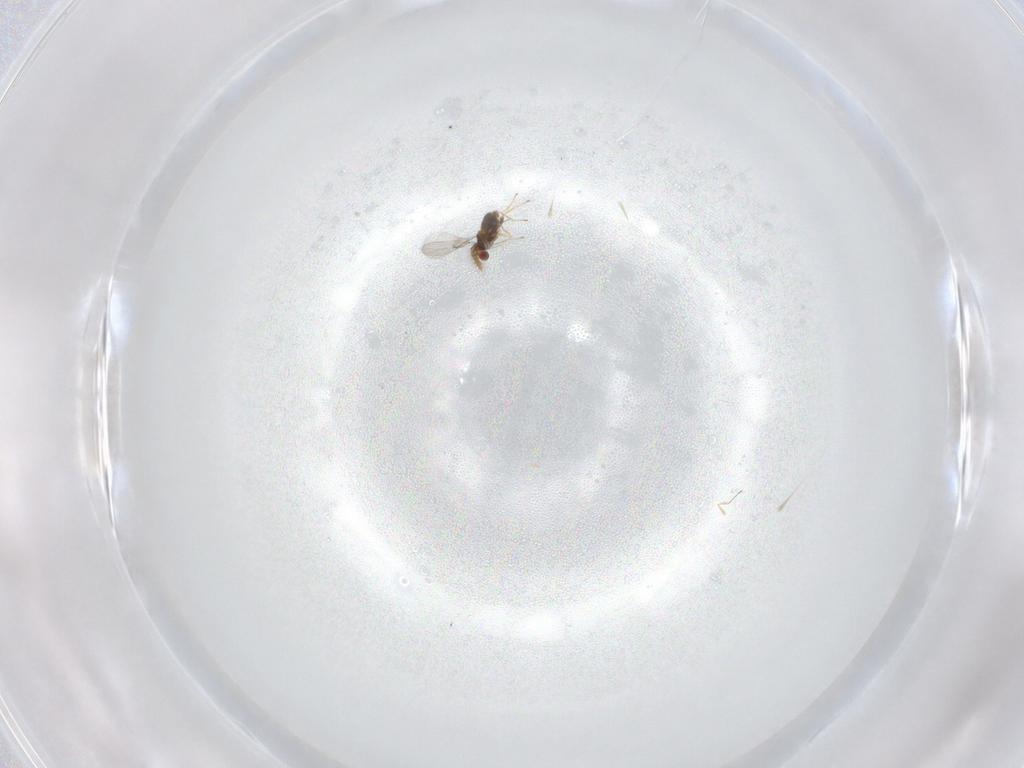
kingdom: Animalia
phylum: Arthropoda
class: Insecta
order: Hymenoptera
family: Trichogrammatidae
